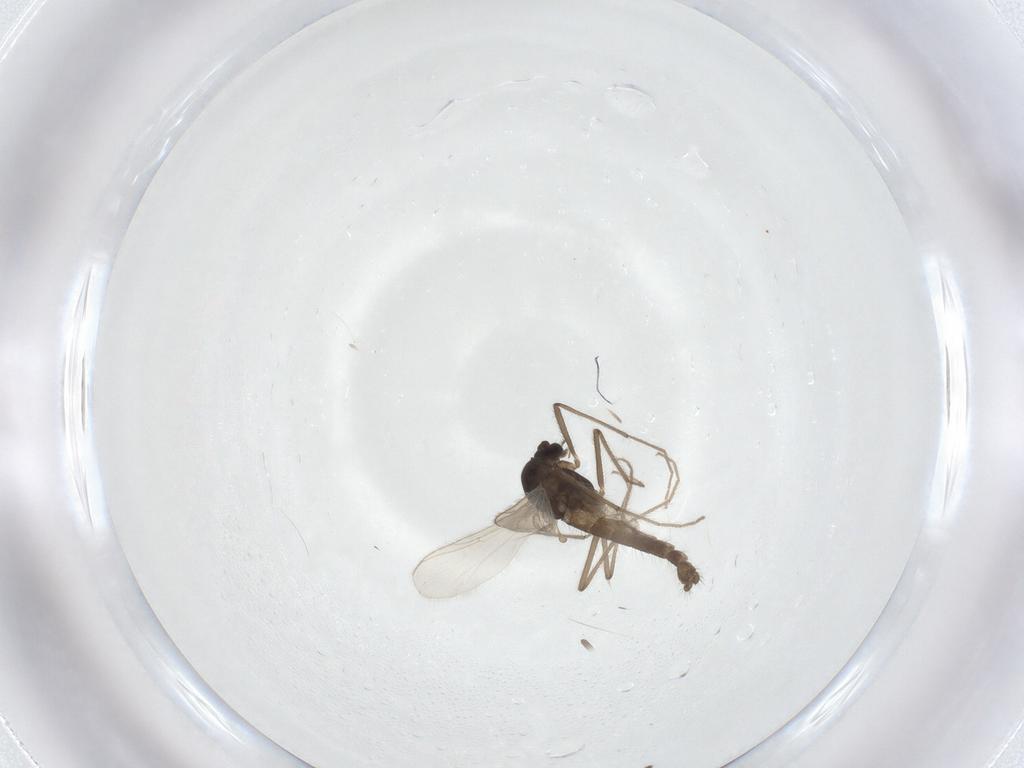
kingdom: Animalia
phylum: Arthropoda
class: Insecta
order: Diptera
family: Chironomidae
